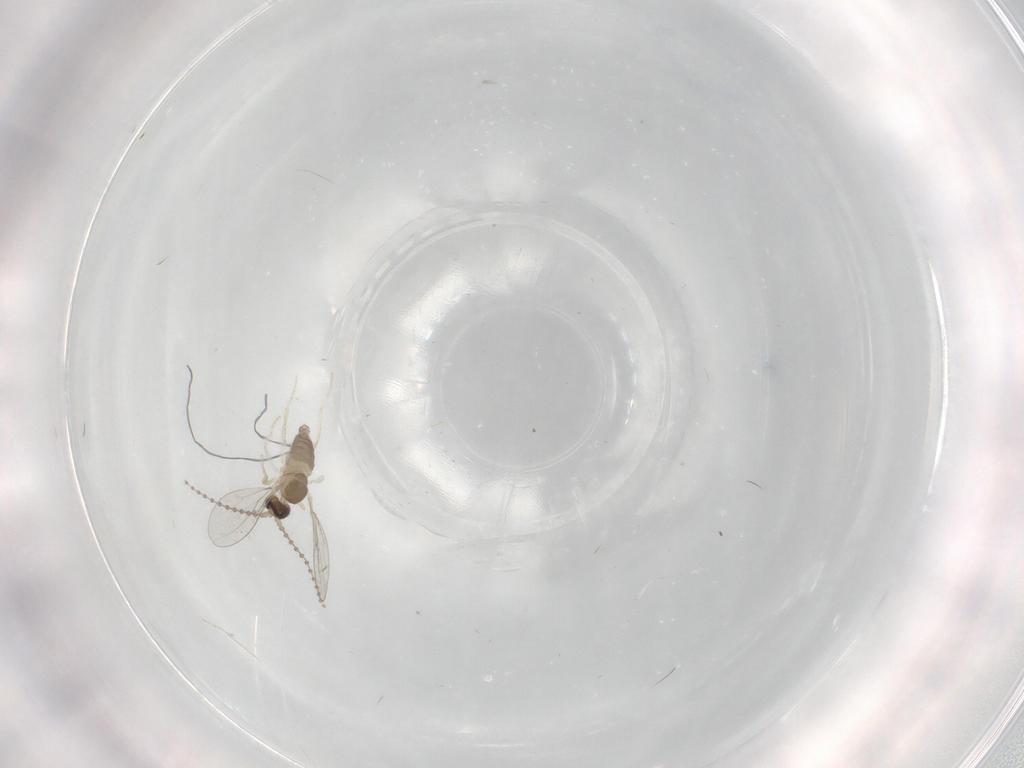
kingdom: Animalia
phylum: Arthropoda
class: Insecta
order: Diptera
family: Cecidomyiidae
